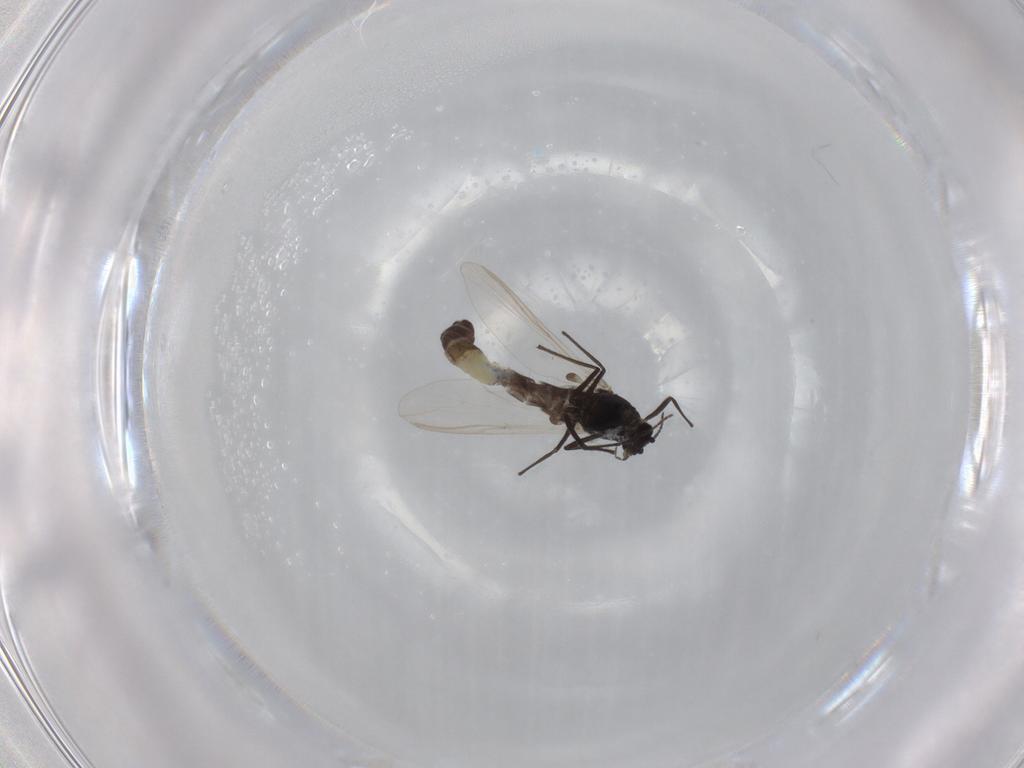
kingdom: Animalia
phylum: Arthropoda
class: Insecta
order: Diptera
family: Chironomidae
